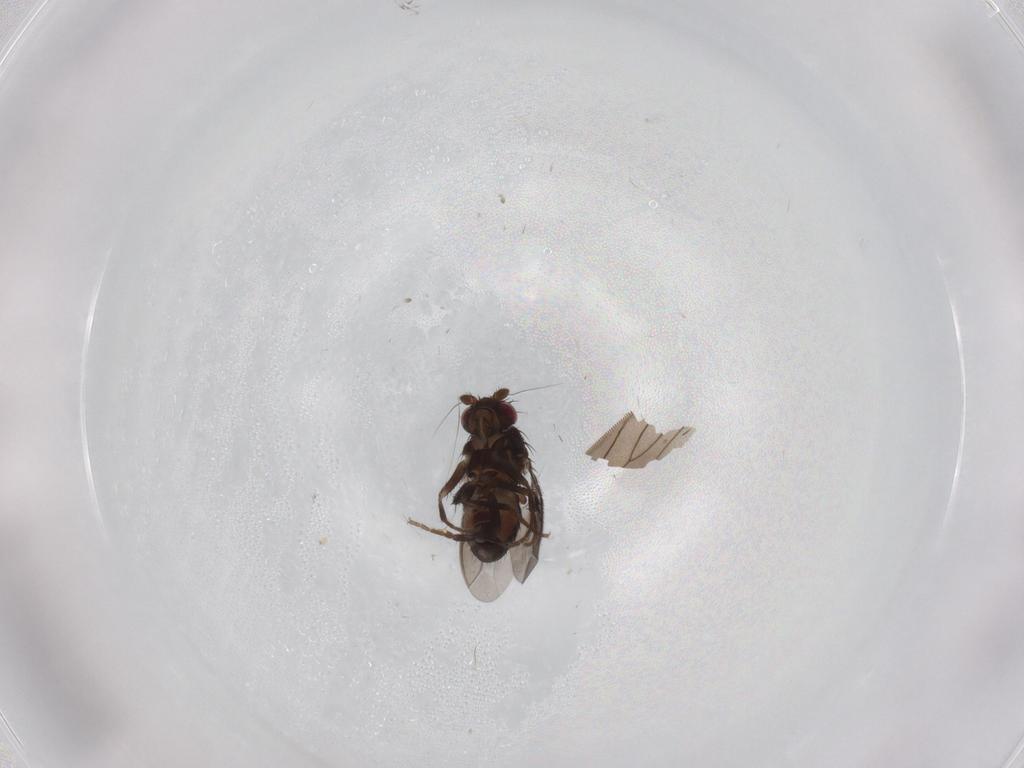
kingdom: Animalia
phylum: Arthropoda
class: Insecta
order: Diptera
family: Sphaeroceridae
